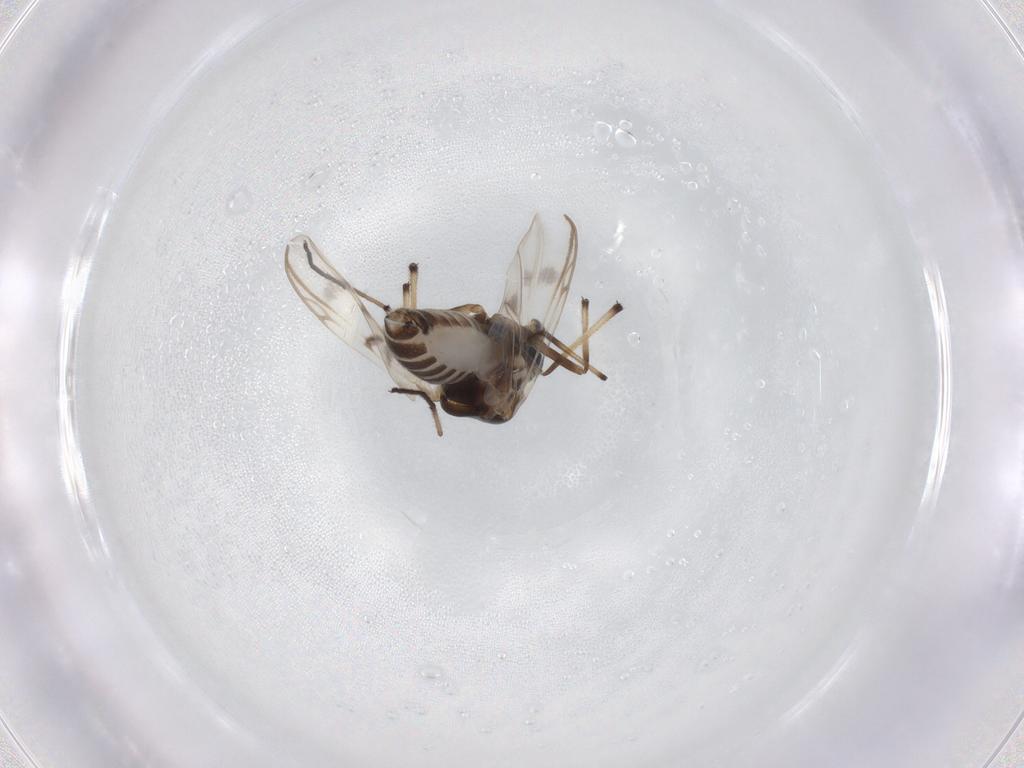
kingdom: Animalia
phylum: Arthropoda
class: Insecta
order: Diptera
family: Chironomidae
